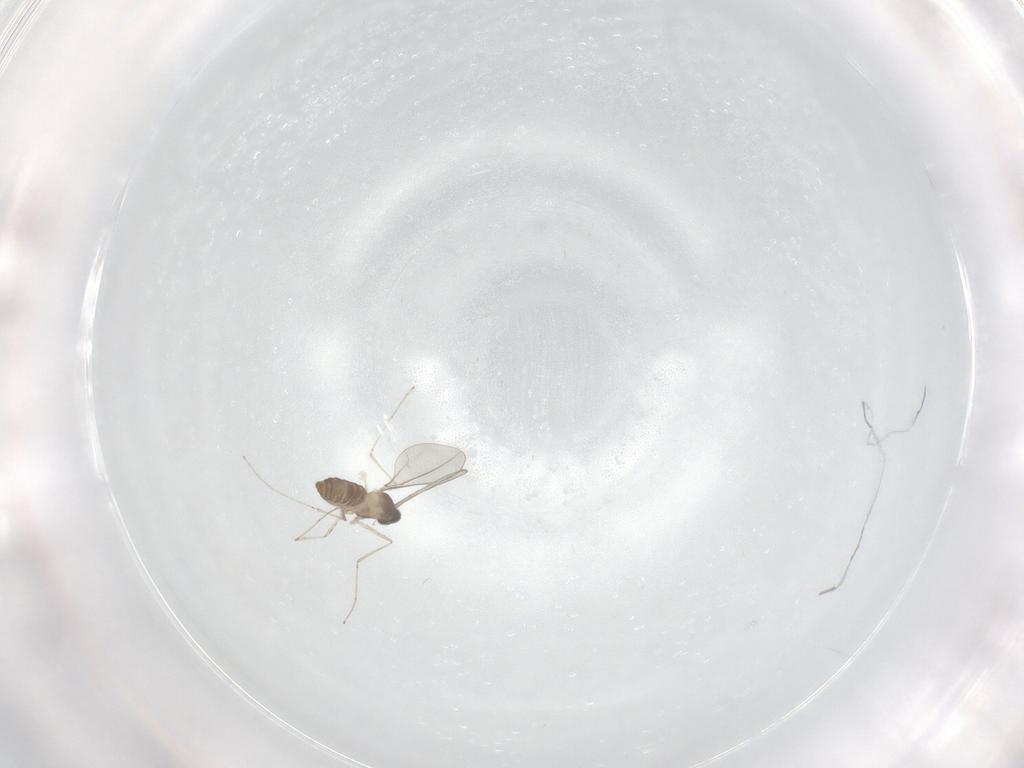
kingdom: Animalia
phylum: Arthropoda
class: Insecta
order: Diptera
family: Cecidomyiidae
